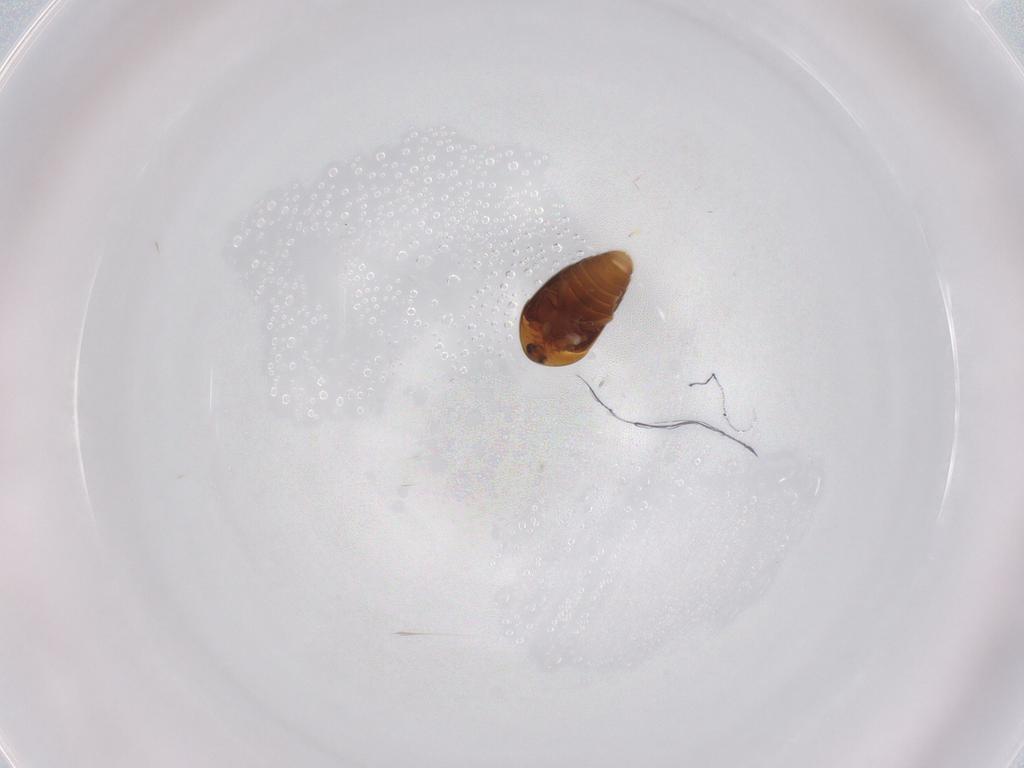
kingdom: Animalia
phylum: Arthropoda
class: Insecta
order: Coleoptera
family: Corylophidae
